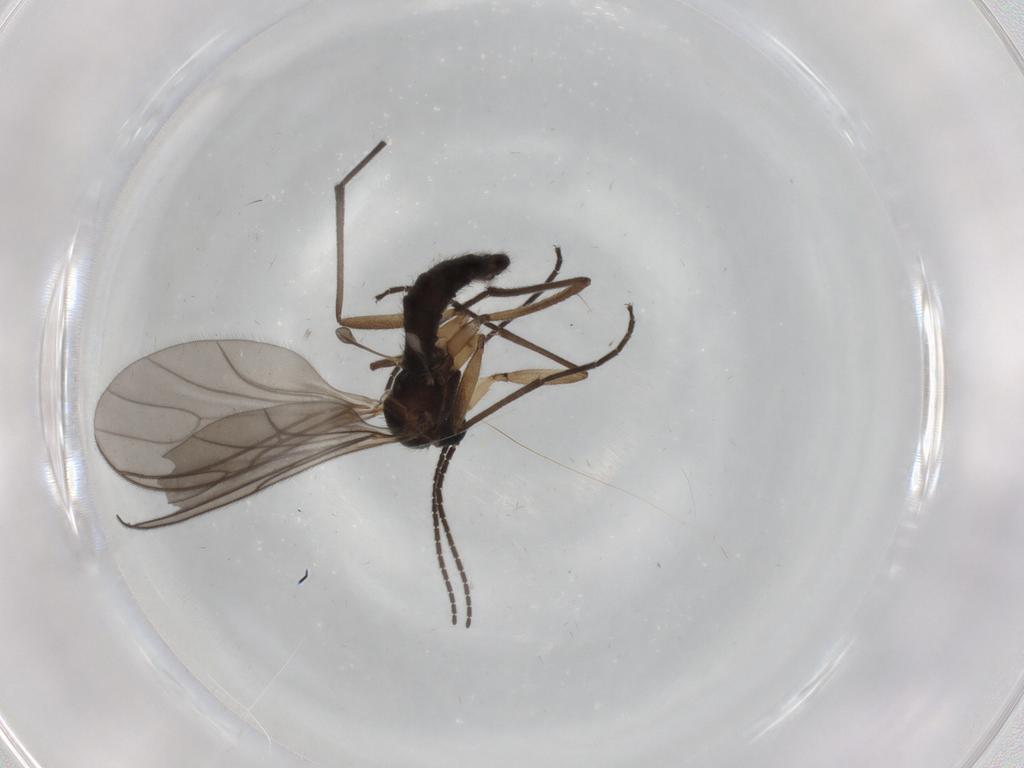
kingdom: Animalia
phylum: Arthropoda
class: Insecta
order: Diptera
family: Sciaridae
